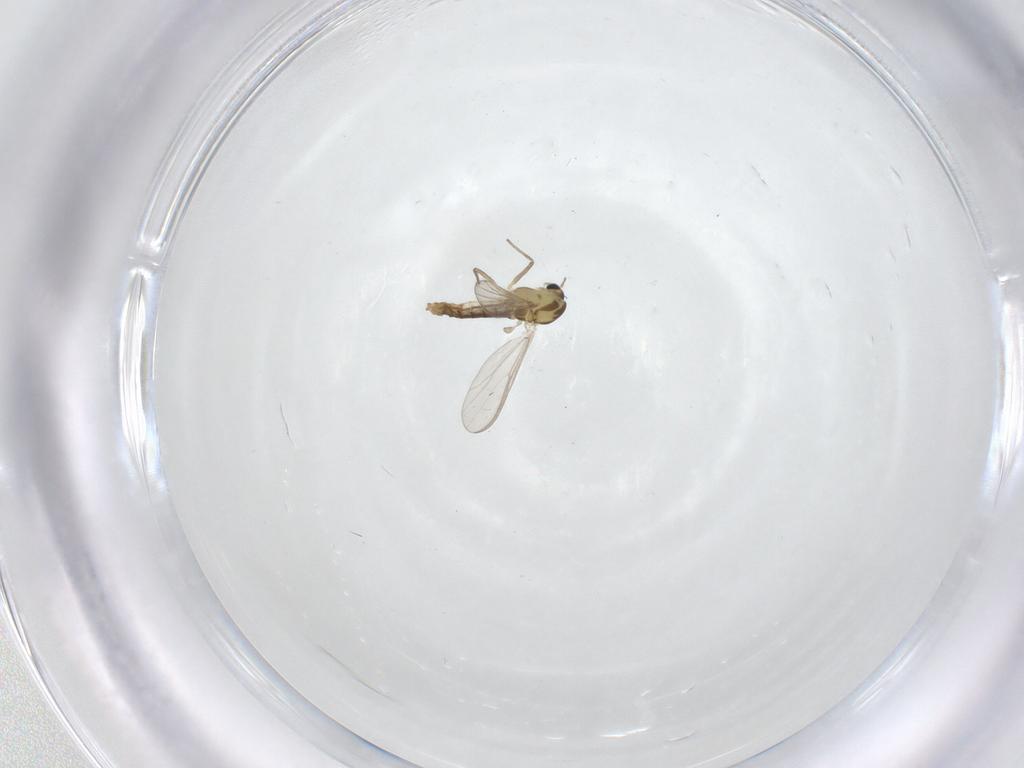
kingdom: Animalia
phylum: Arthropoda
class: Insecta
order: Diptera
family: Chironomidae
